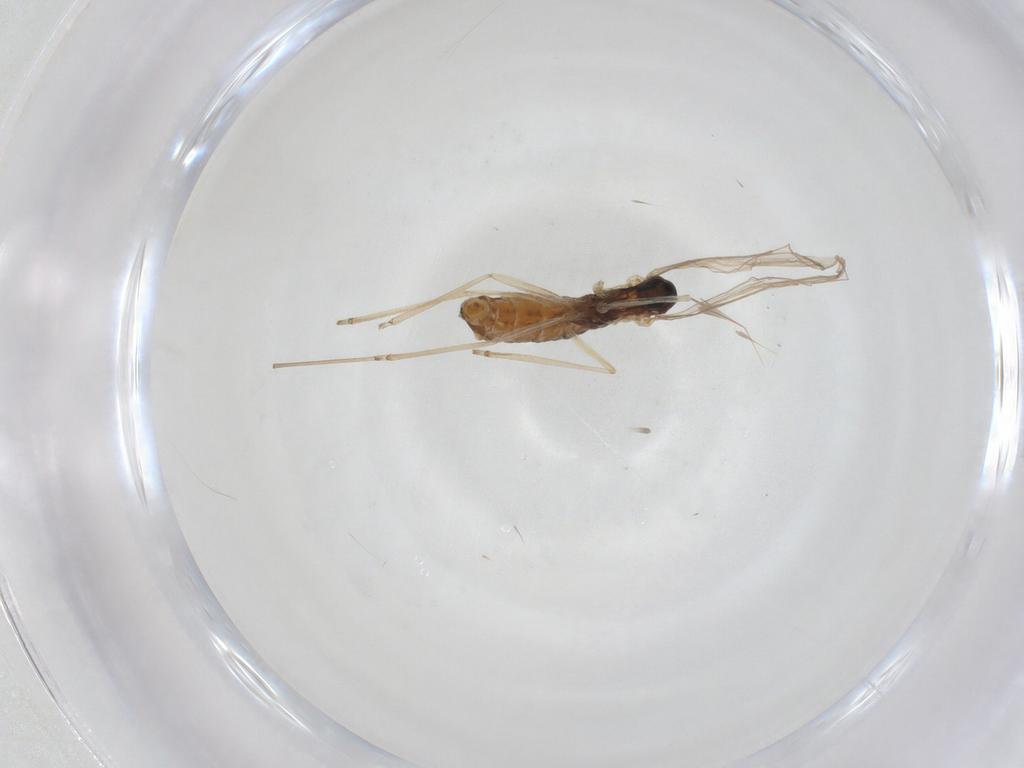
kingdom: Animalia
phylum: Arthropoda
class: Insecta
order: Diptera
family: Cecidomyiidae
